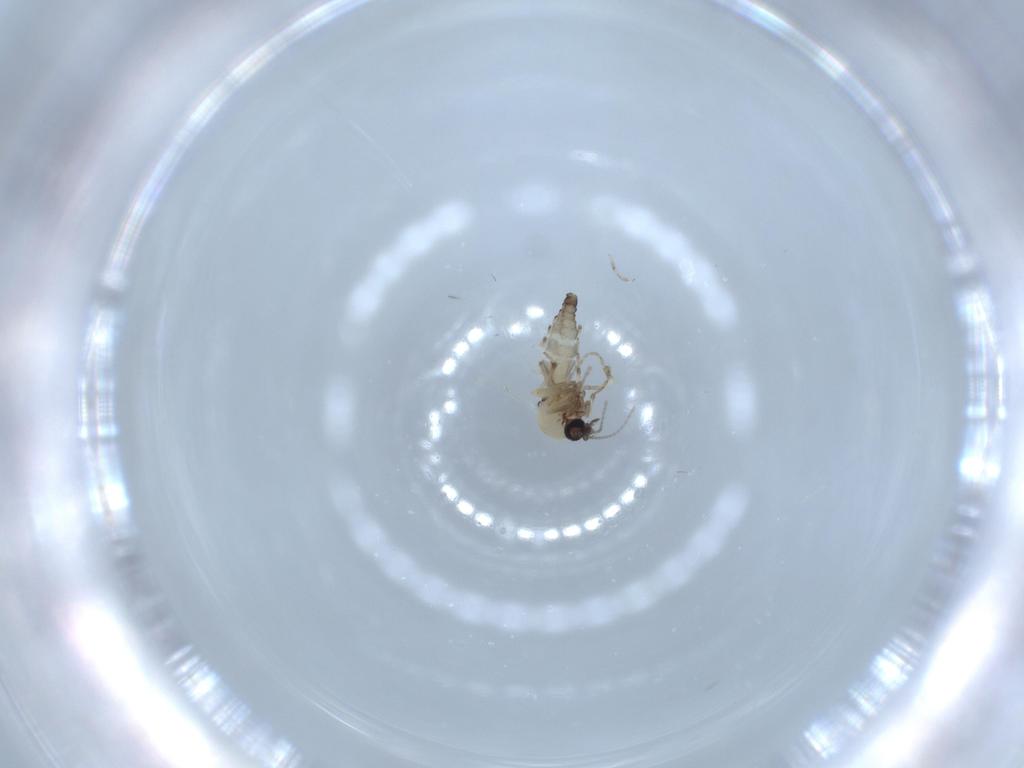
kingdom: Animalia
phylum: Arthropoda
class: Insecta
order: Diptera
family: Ceratopogonidae
